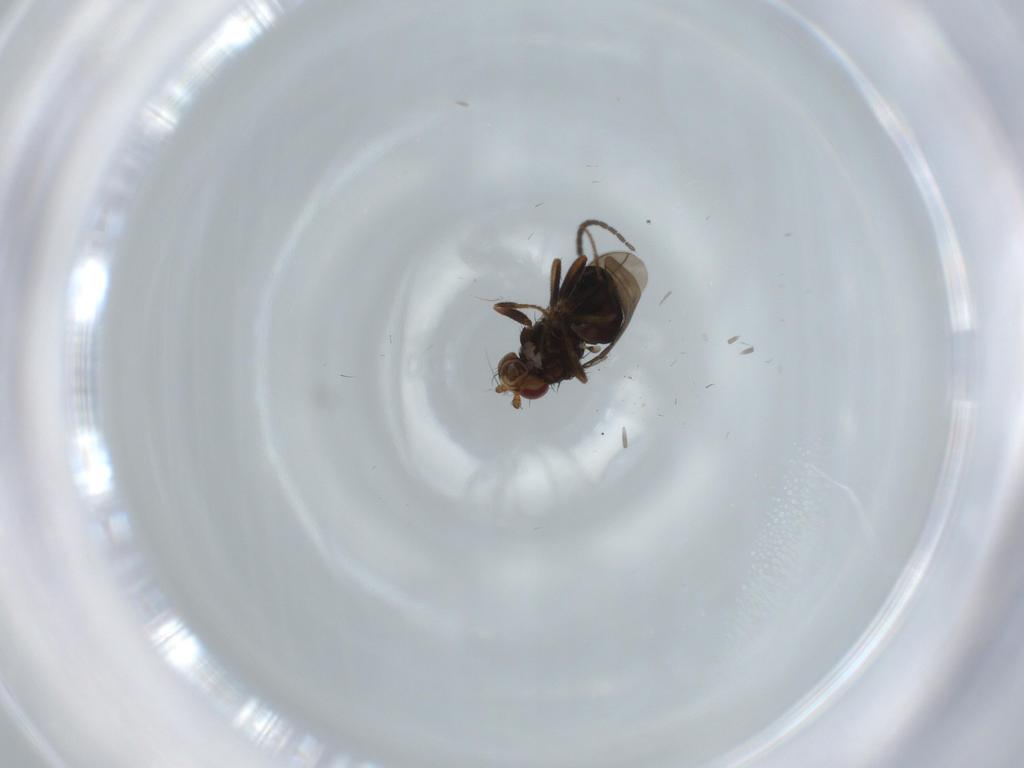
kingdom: Animalia
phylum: Arthropoda
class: Insecta
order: Diptera
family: Sciaridae
